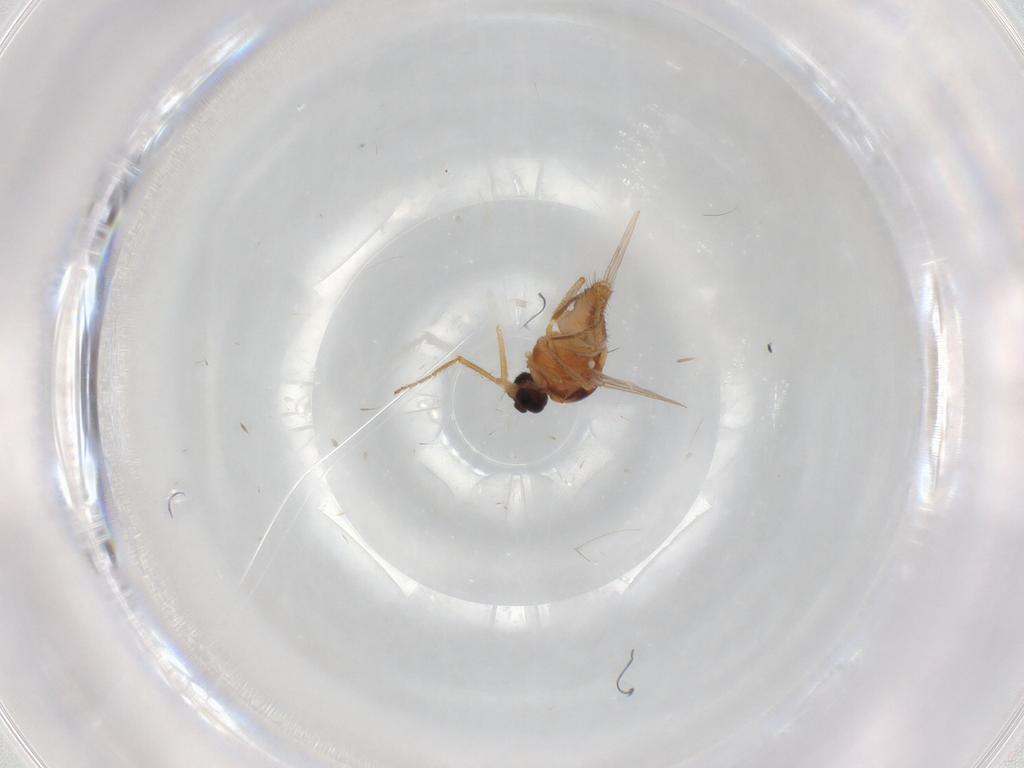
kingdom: Animalia
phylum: Arthropoda
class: Insecta
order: Diptera
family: Ceratopogonidae
